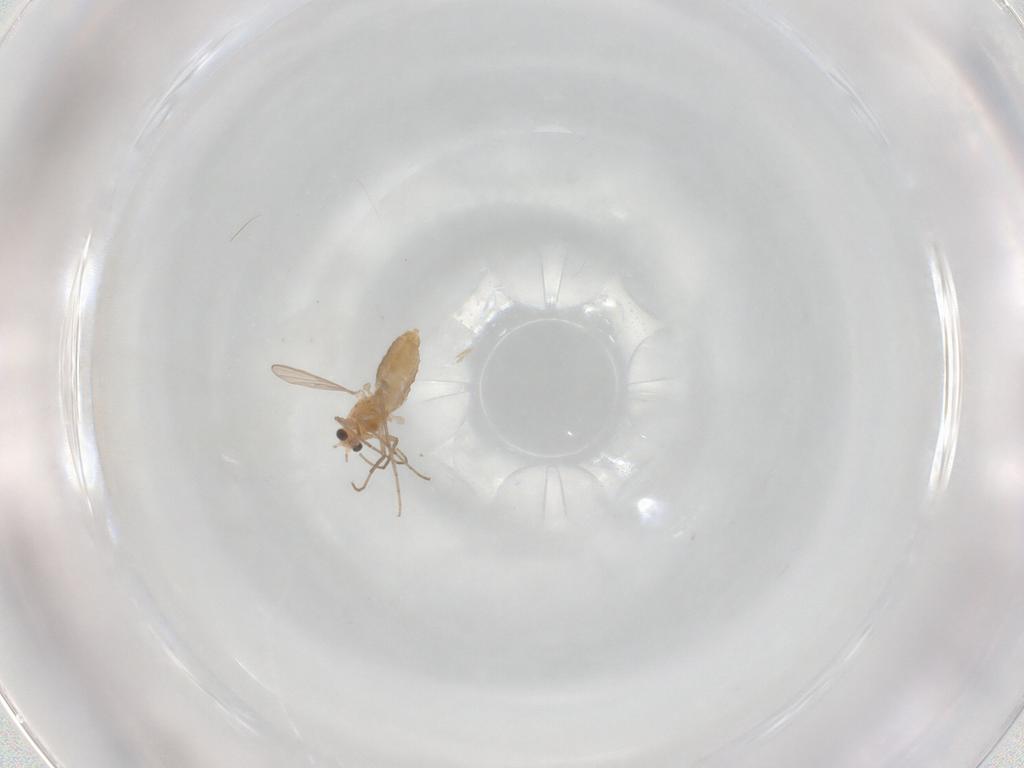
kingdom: Animalia
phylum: Arthropoda
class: Insecta
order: Diptera
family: Chironomidae
